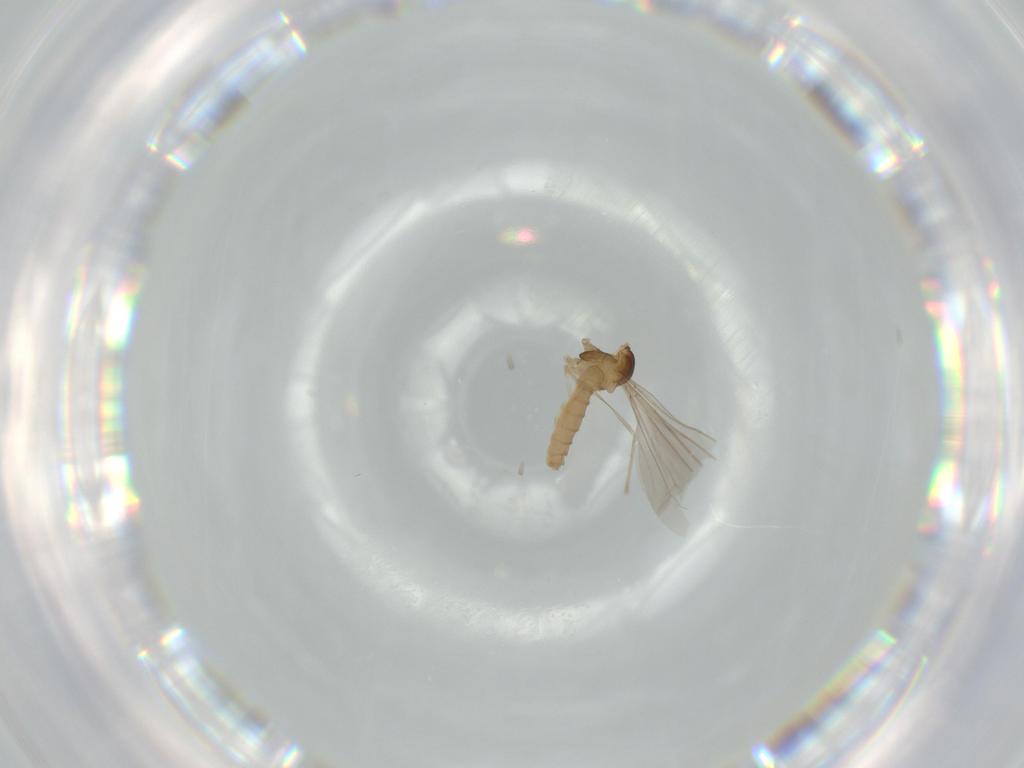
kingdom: Animalia
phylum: Arthropoda
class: Insecta
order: Diptera
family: Cecidomyiidae
